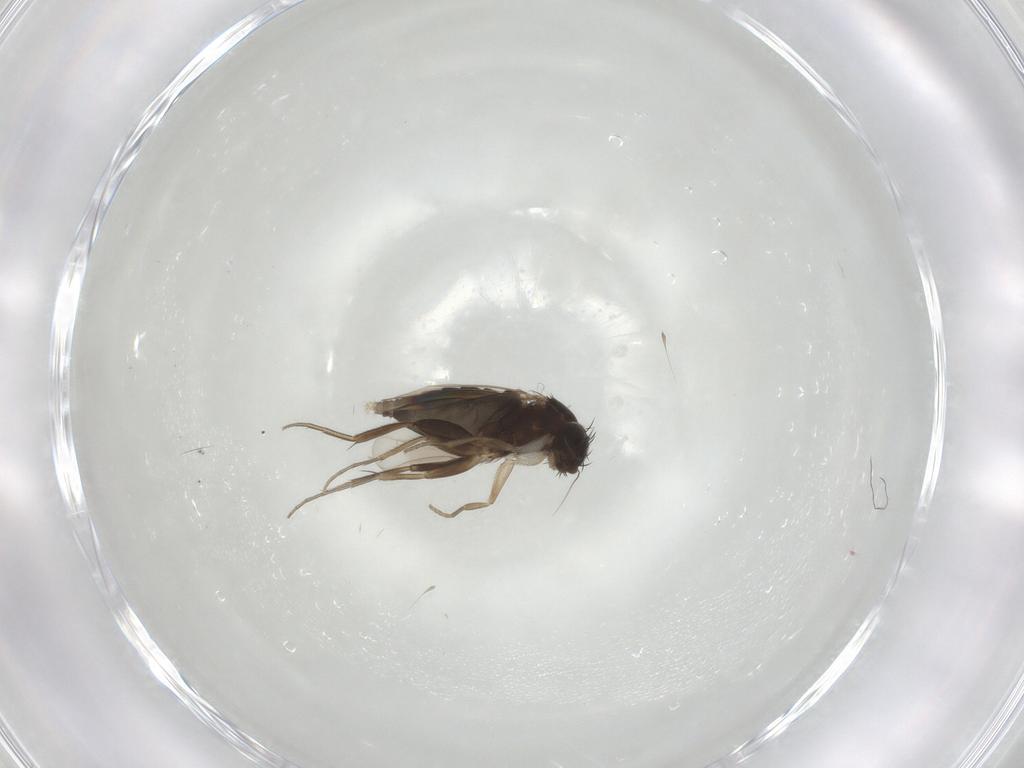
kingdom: Animalia
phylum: Arthropoda
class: Insecta
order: Diptera
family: Phoridae
